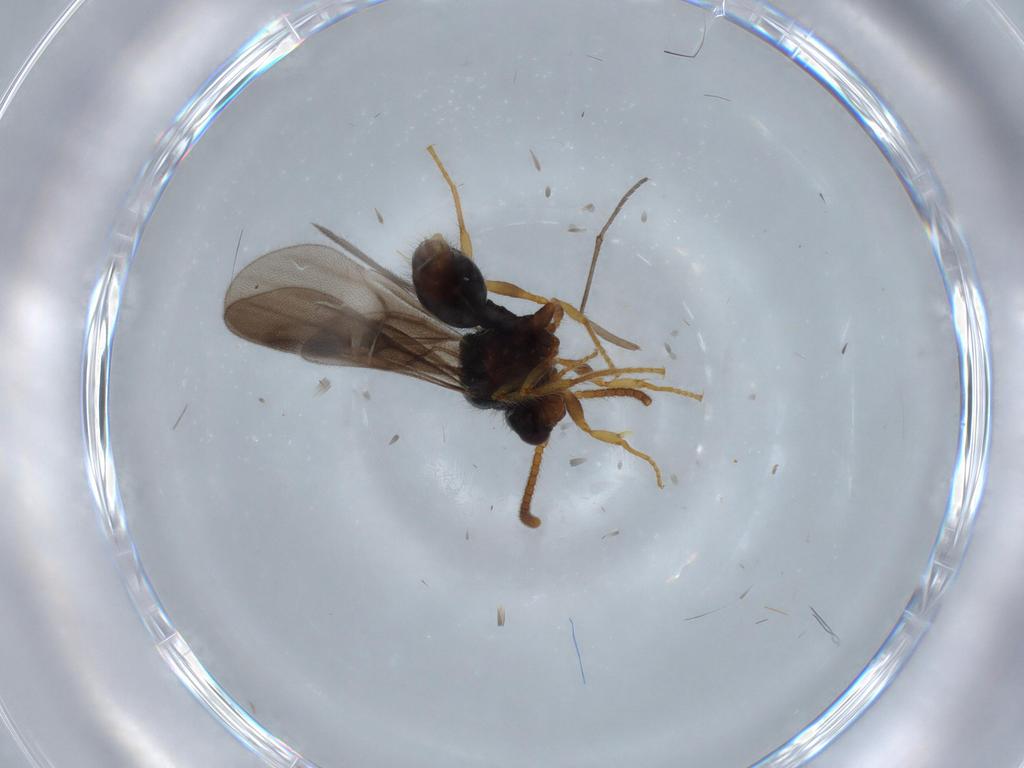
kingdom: Animalia
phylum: Arthropoda
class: Insecta
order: Hymenoptera
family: Formicidae
